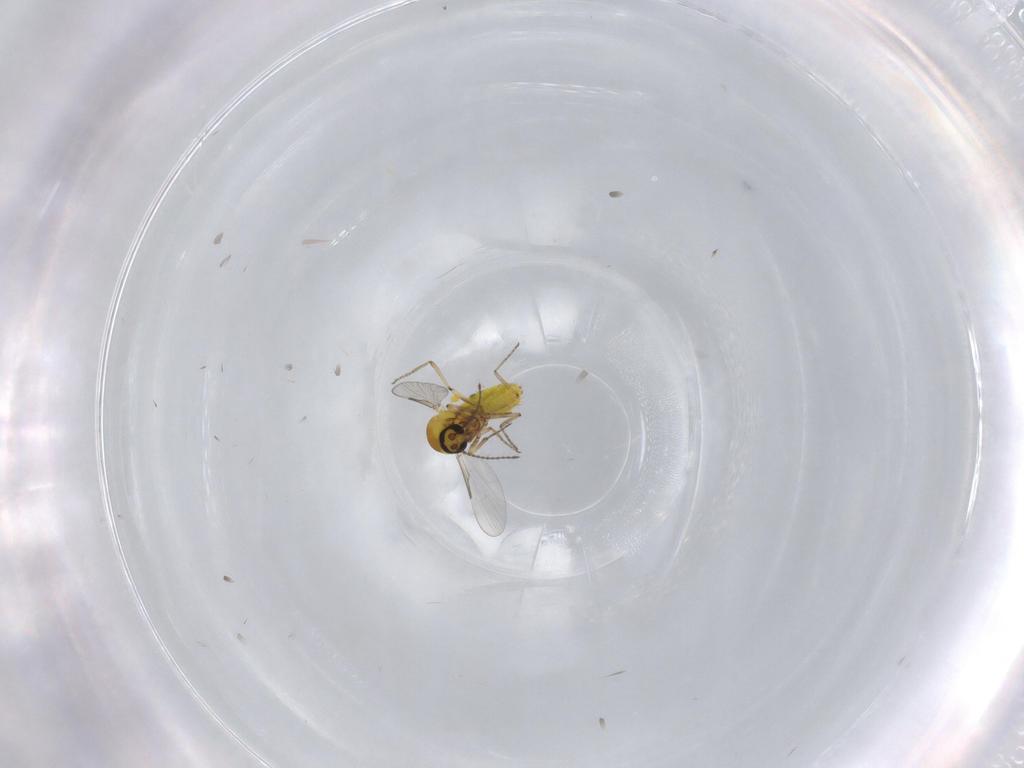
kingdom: Animalia
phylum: Arthropoda
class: Insecta
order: Diptera
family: Ceratopogonidae
